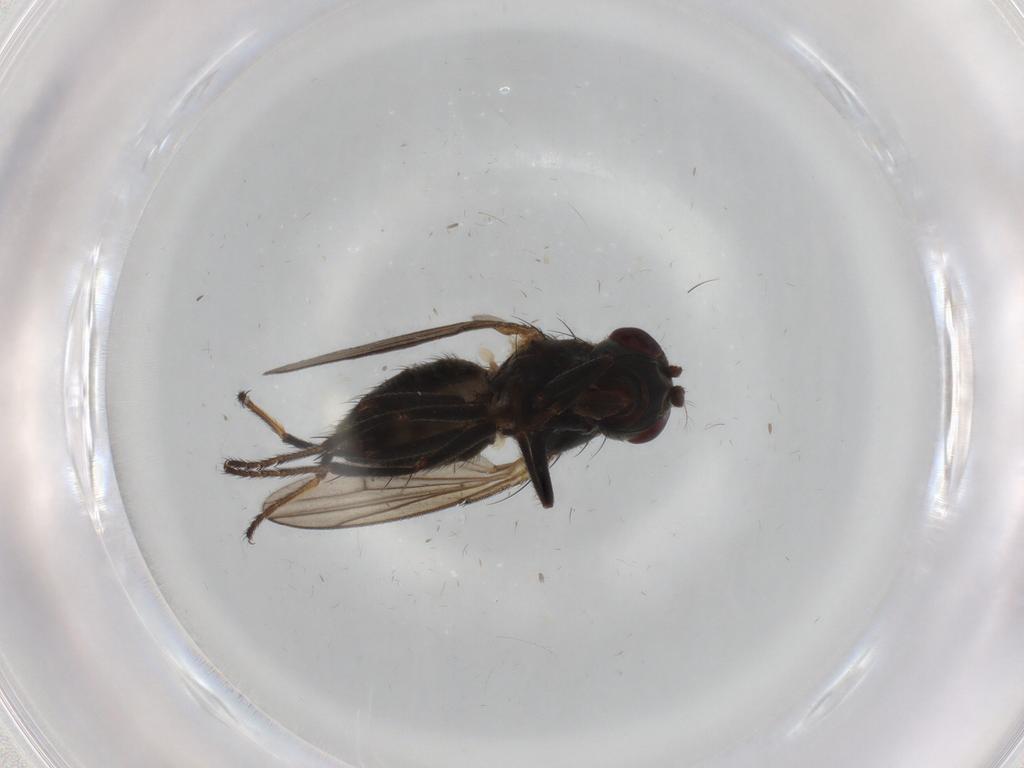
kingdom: Animalia
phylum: Arthropoda
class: Insecta
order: Diptera
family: Ephydridae
